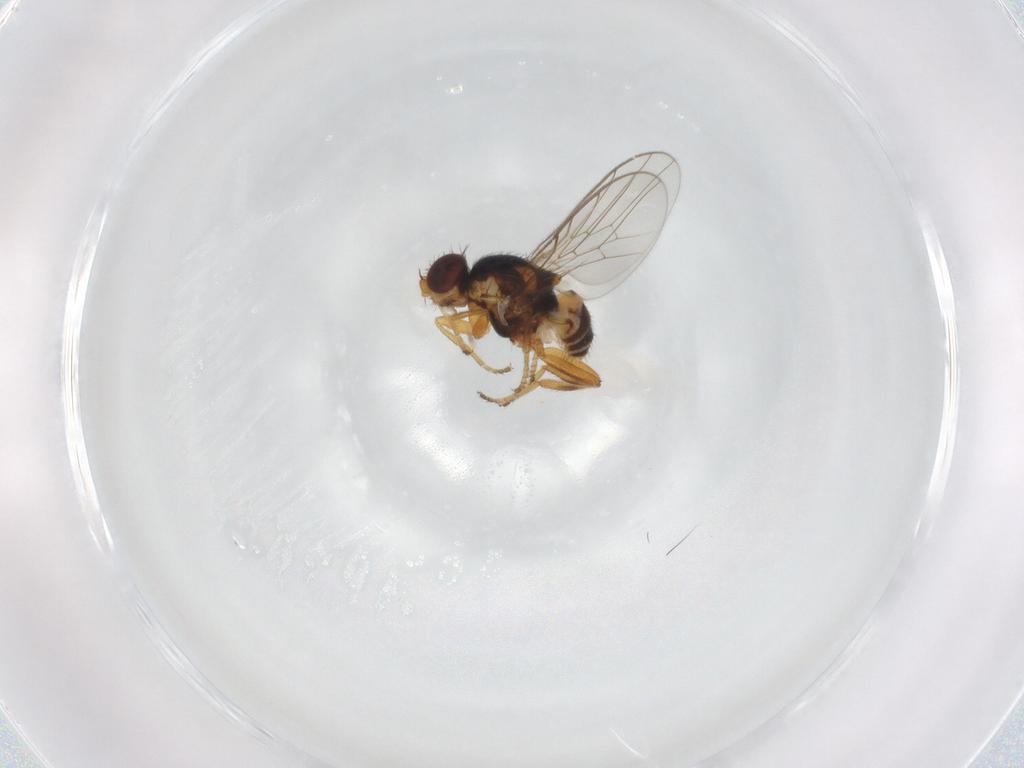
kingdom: Animalia
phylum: Arthropoda
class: Insecta
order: Diptera
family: Chloropidae
